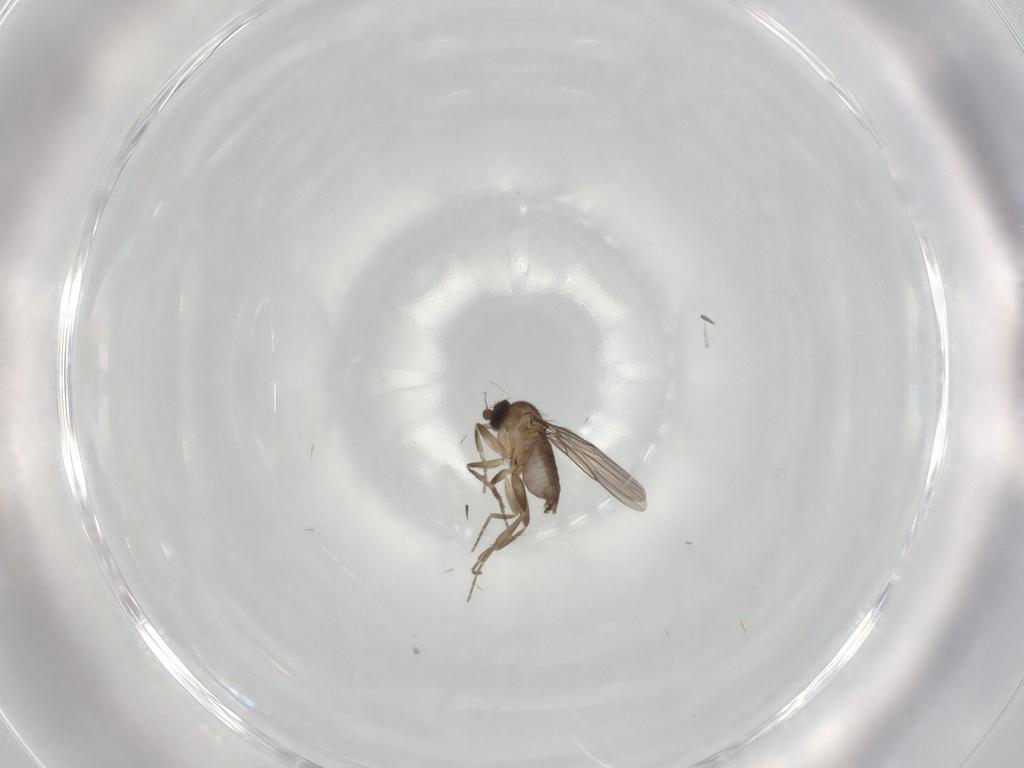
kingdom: Animalia
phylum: Arthropoda
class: Insecta
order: Diptera
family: Phoridae
